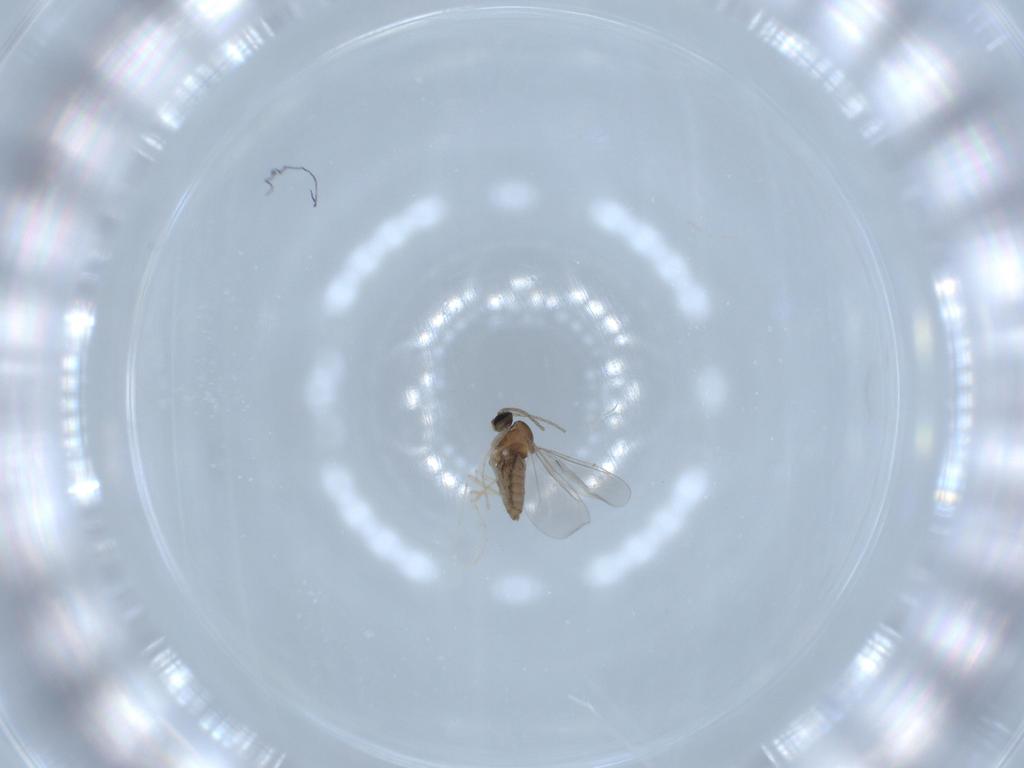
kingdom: Animalia
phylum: Arthropoda
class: Insecta
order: Diptera
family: Cecidomyiidae
